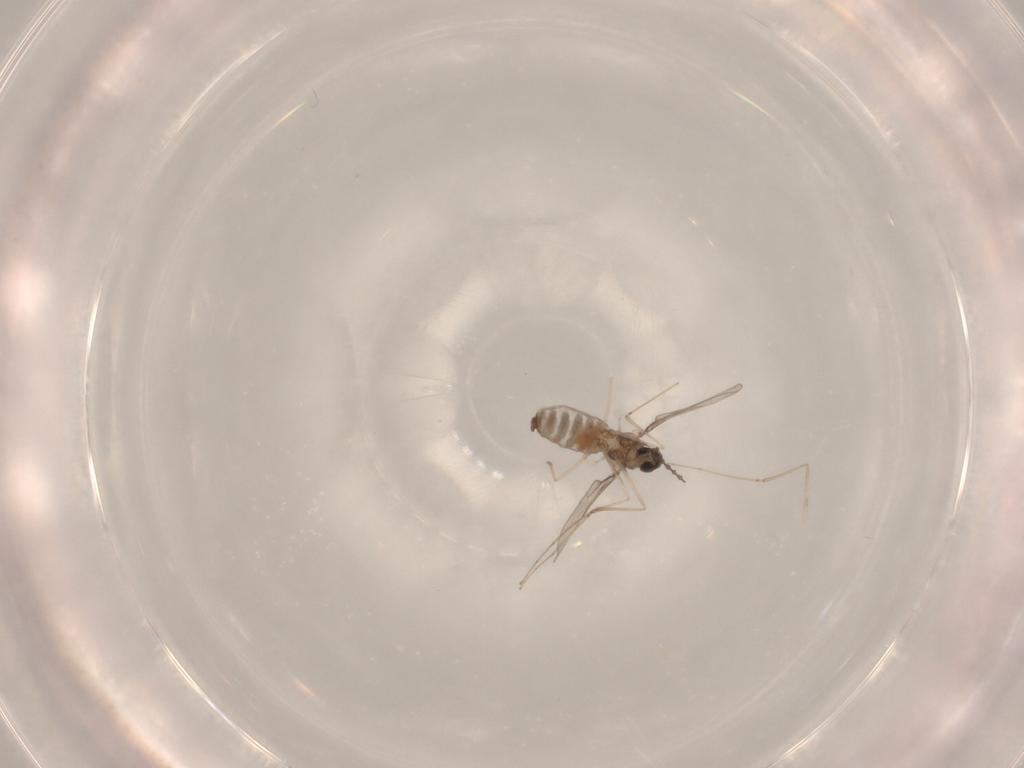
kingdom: Animalia
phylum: Arthropoda
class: Insecta
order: Diptera
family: Cecidomyiidae
